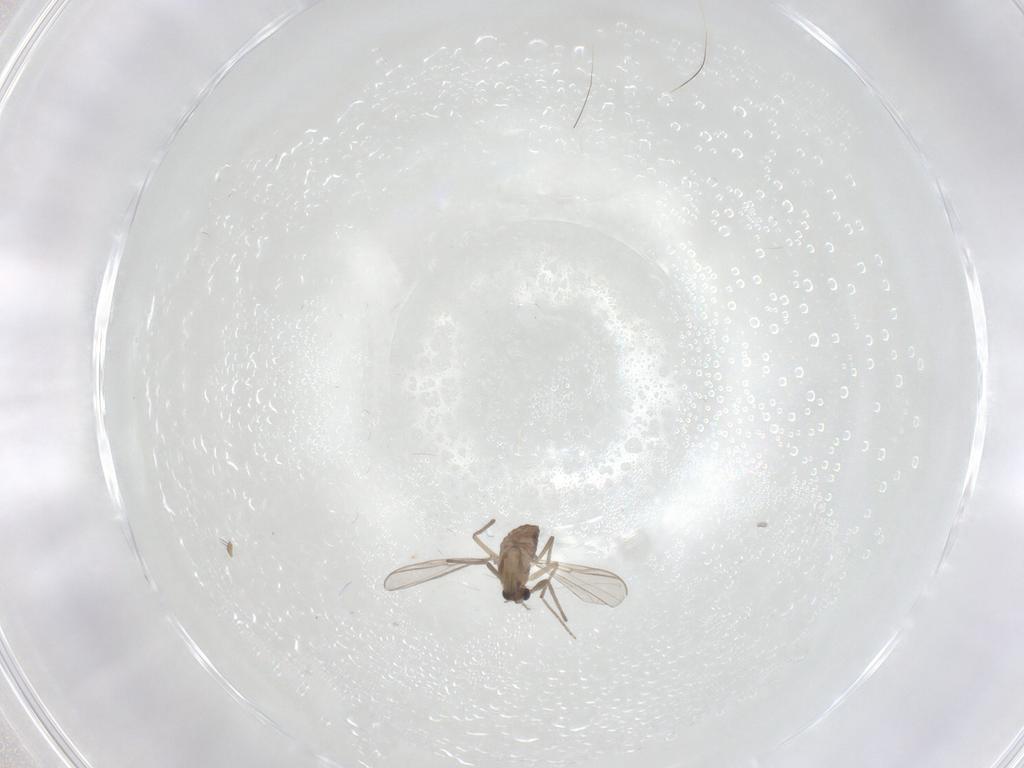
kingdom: Animalia
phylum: Arthropoda
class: Insecta
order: Diptera
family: Chironomidae
